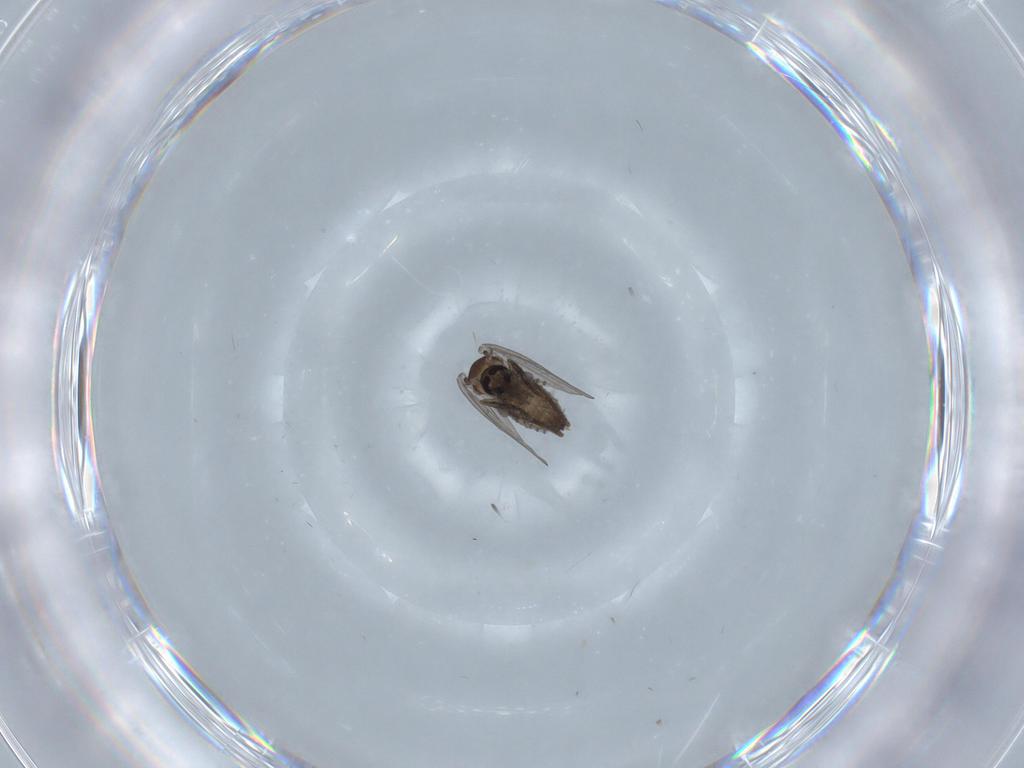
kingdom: Animalia
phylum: Arthropoda
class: Insecta
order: Diptera
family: Psychodidae
